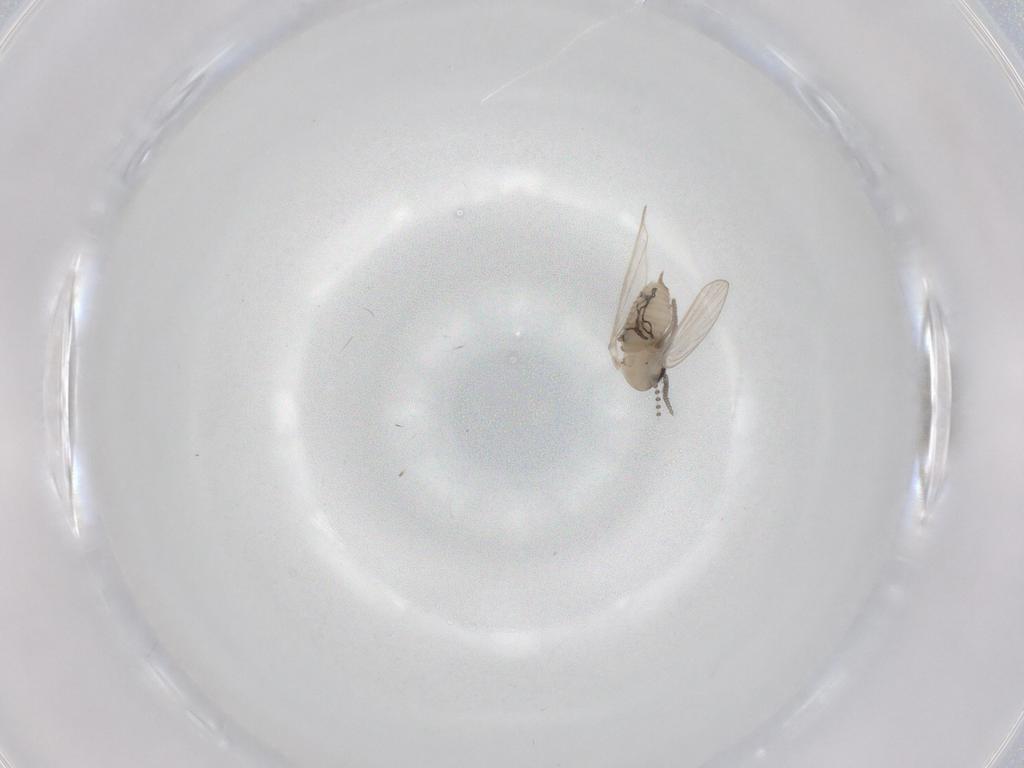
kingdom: Animalia
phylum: Arthropoda
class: Insecta
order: Diptera
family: Psychodidae
